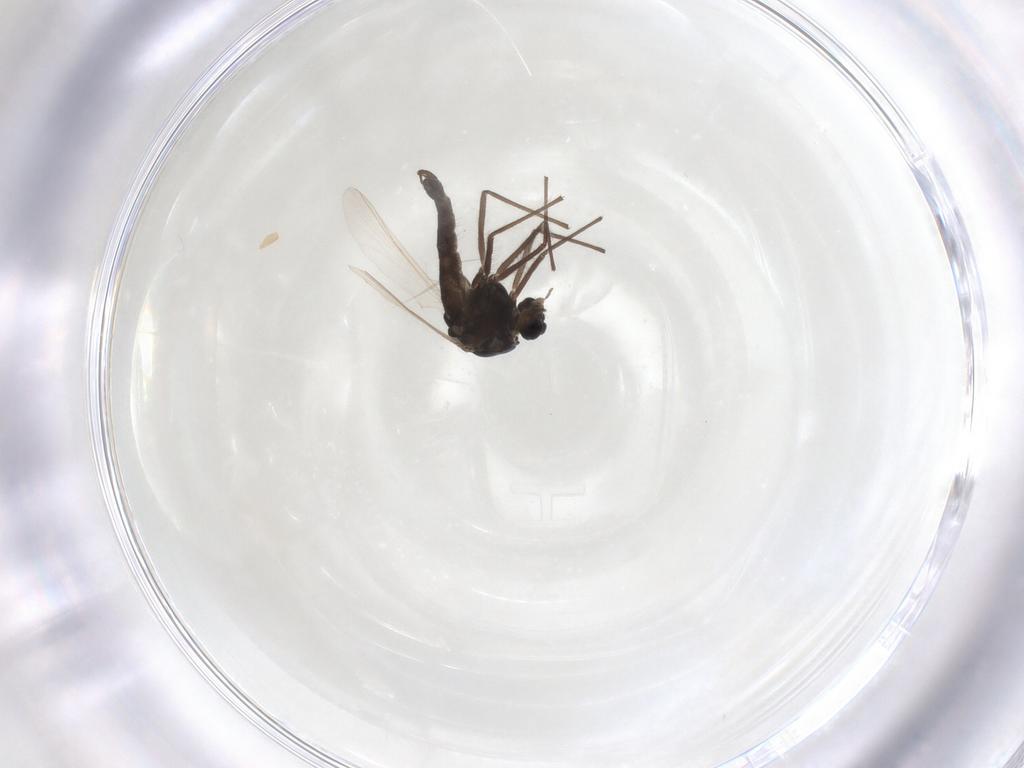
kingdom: Animalia
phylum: Arthropoda
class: Insecta
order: Diptera
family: Chironomidae
